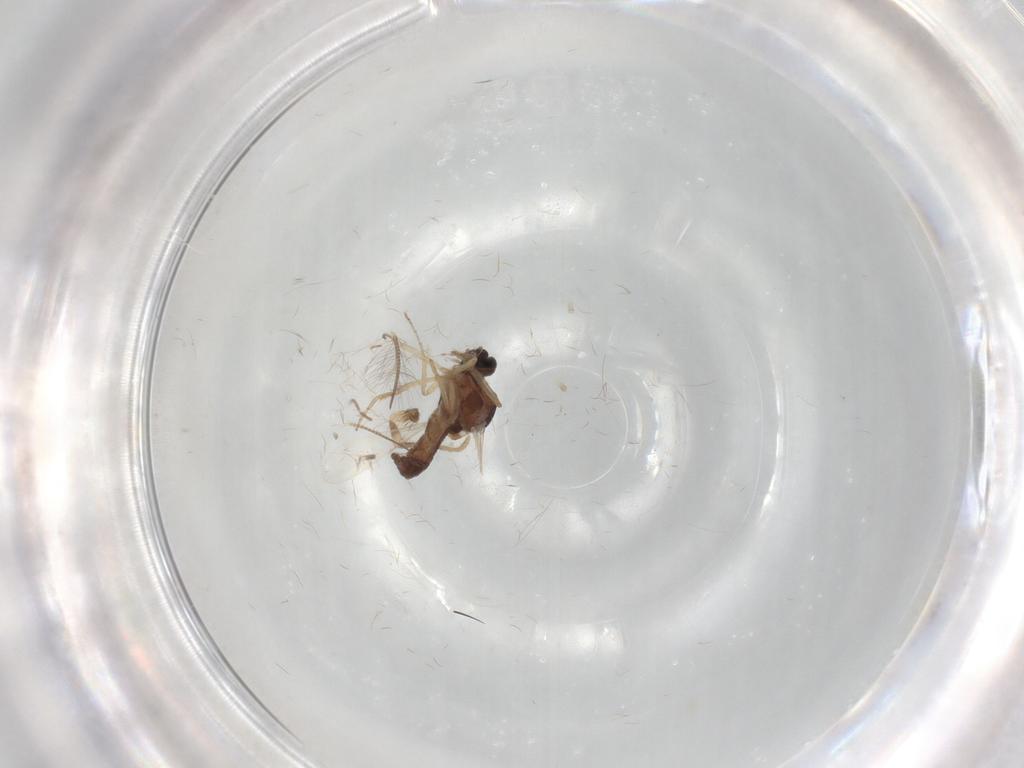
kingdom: Animalia
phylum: Arthropoda
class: Insecta
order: Diptera
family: Ceratopogonidae
